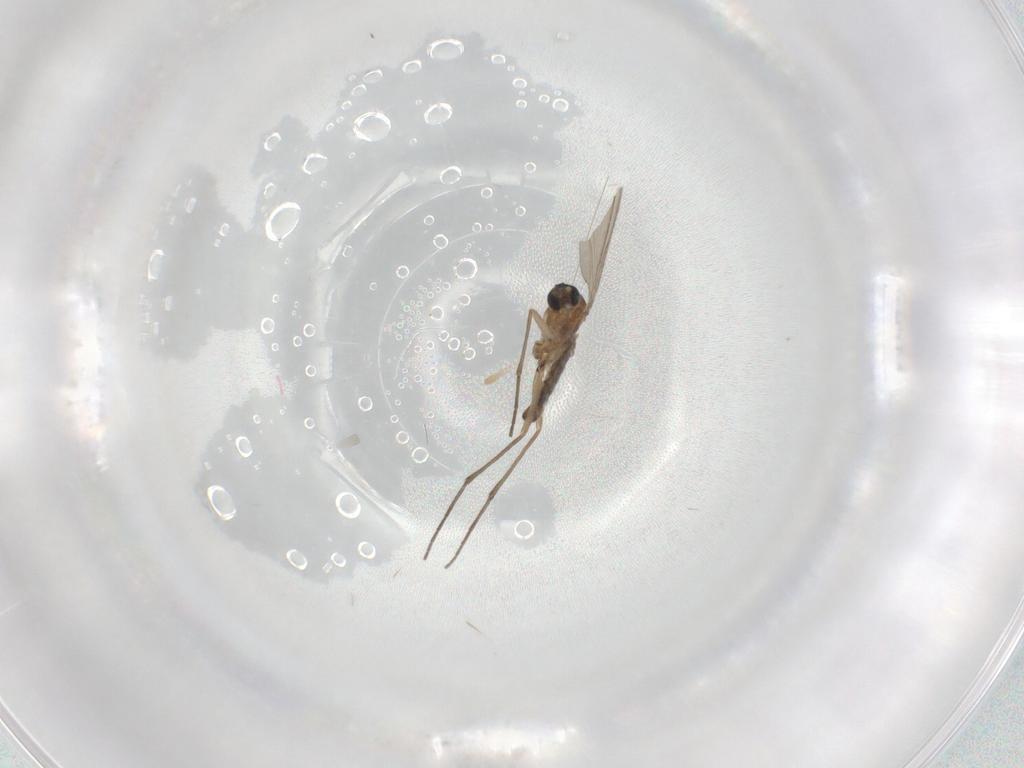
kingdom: Animalia
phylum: Arthropoda
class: Insecta
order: Diptera
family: Sciaridae
